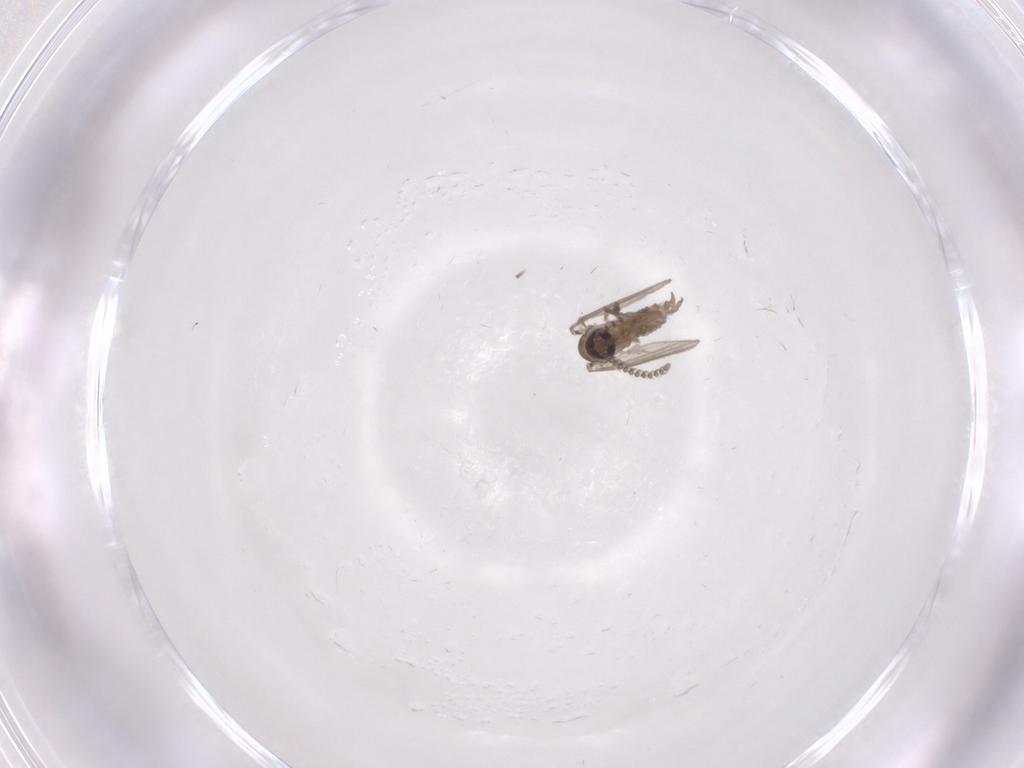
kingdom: Animalia
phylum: Arthropoda
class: Insecta
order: Diptera
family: Psychodidae
